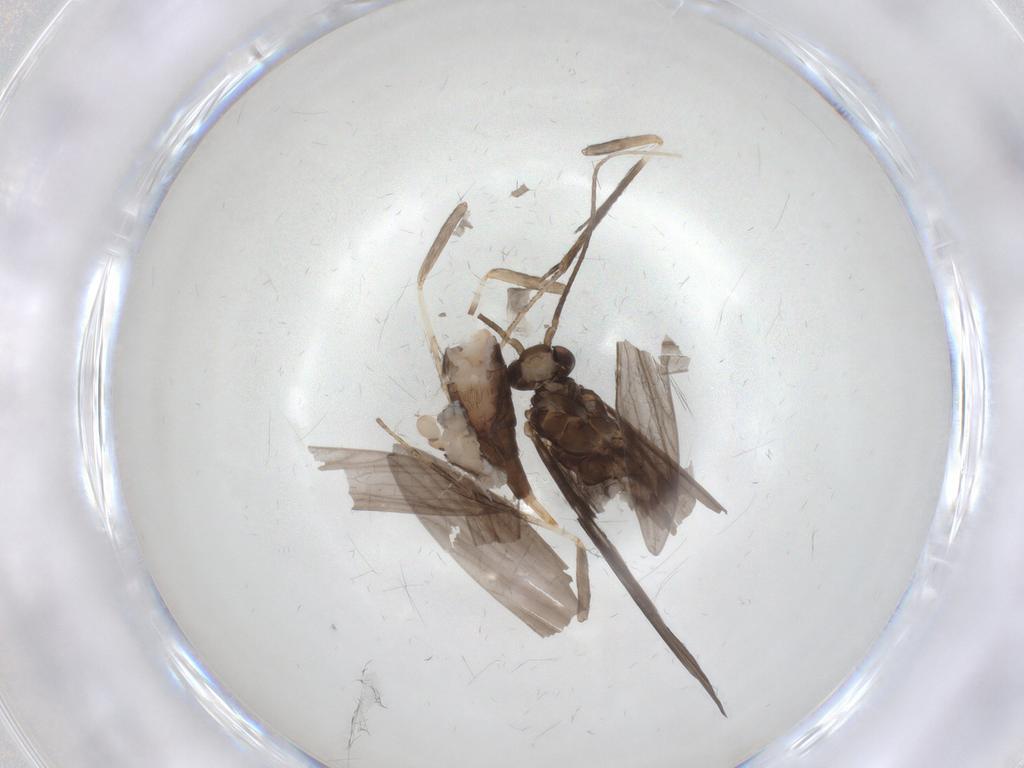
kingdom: Animalia
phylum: Arthropoda
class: Insecta
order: Trichoptera
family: Xiphocentronidae
